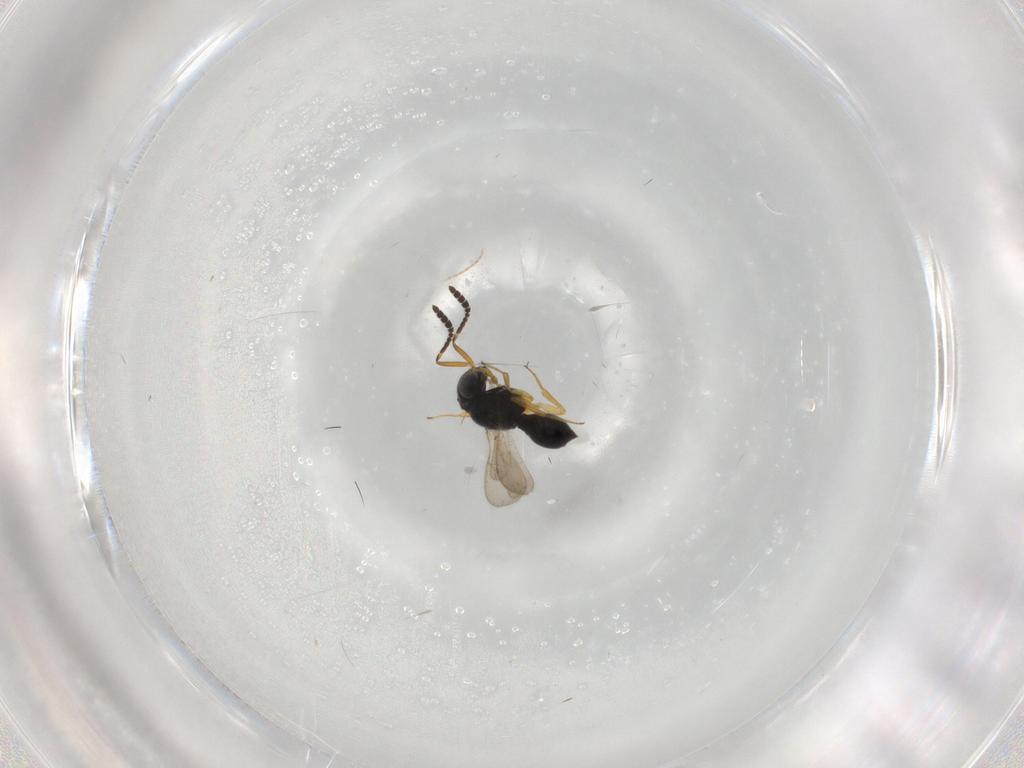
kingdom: Animalia
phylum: Arthropoda
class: Insecta
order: Hymenoptera
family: Scelionidae
